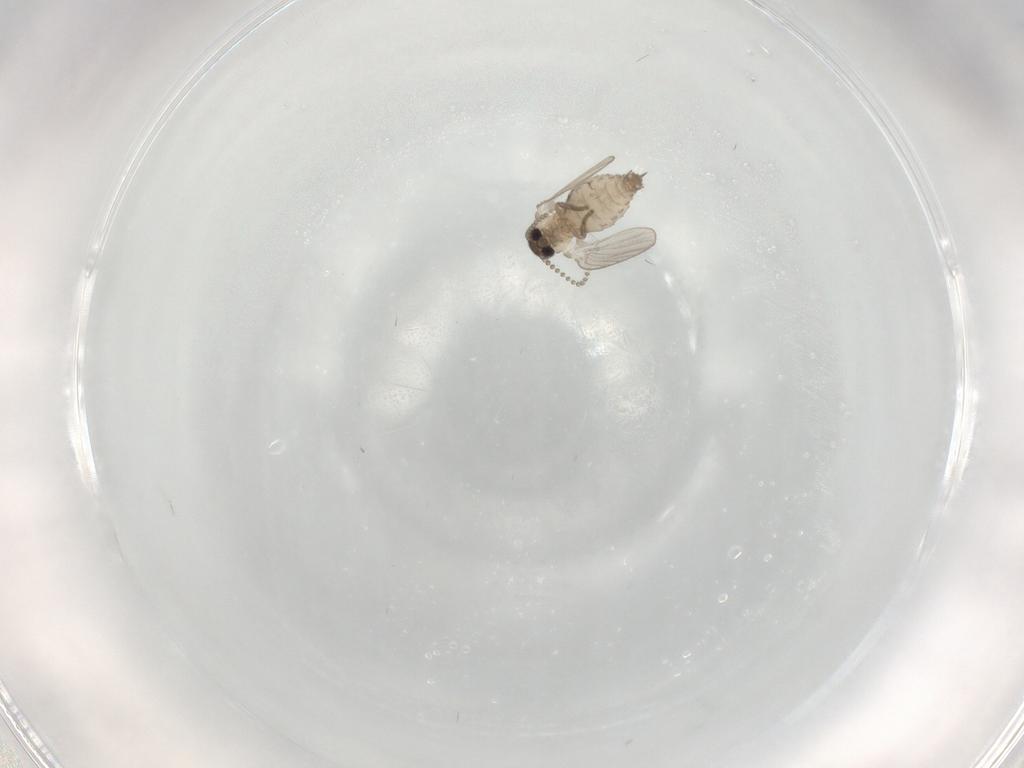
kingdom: Animalia
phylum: Arthropoda
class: Insecta
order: Diptera
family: Psychodidae
